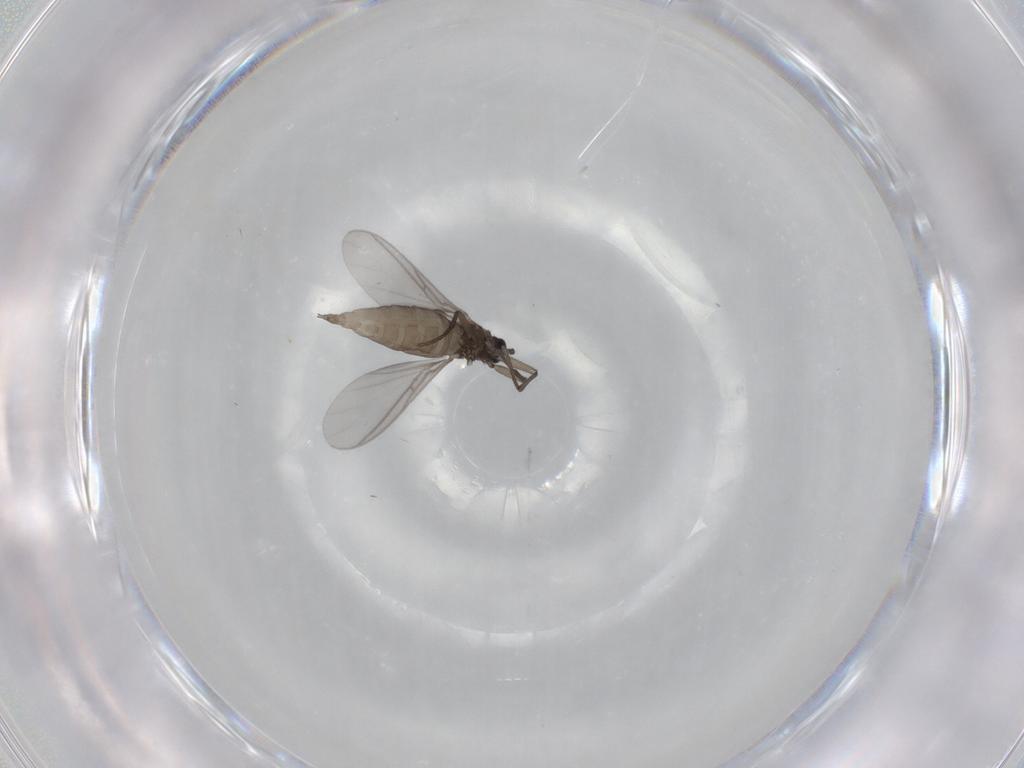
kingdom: Animalia
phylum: Arthropoda
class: Insecta
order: Diptera
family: Sciaridae
